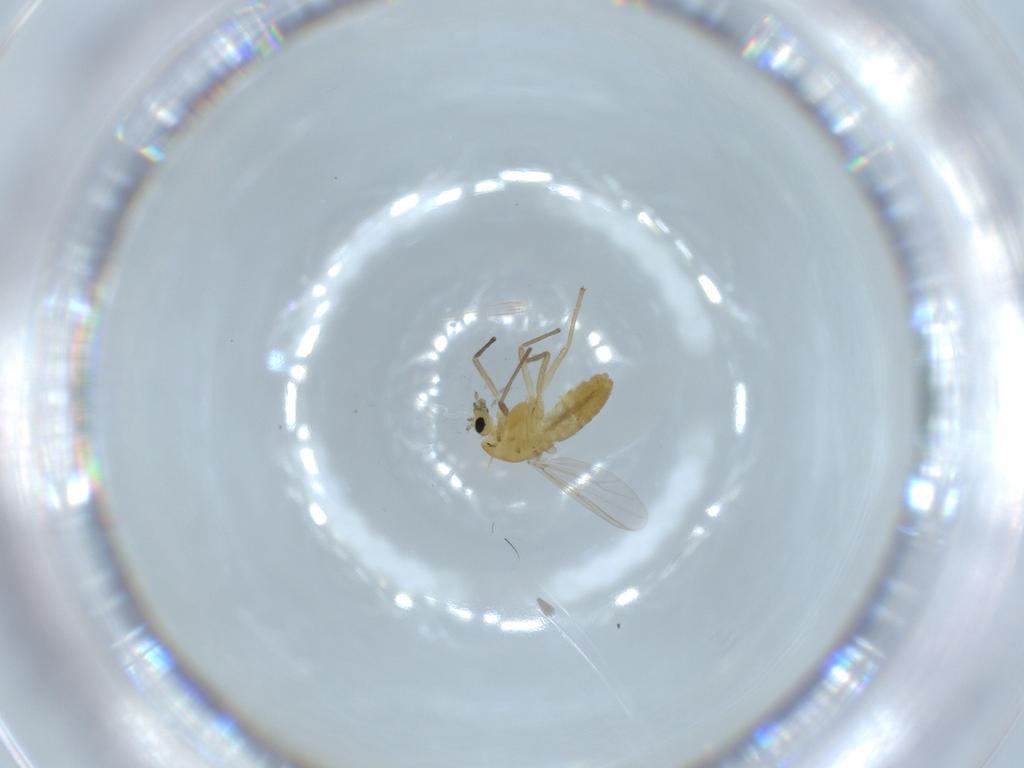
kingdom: Animalia
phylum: Arthropoda
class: Insecta
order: Diptera
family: Chironomidae
